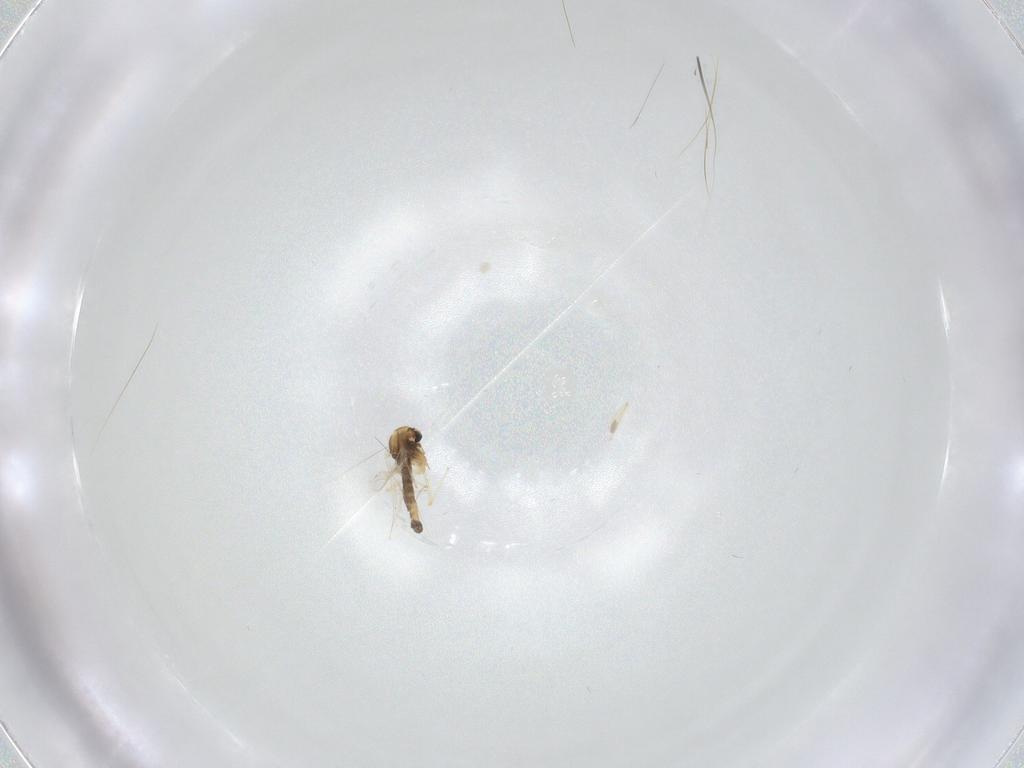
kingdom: Animalia
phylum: Arthropoda
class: Insecta
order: Diptera
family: Chironomidae
